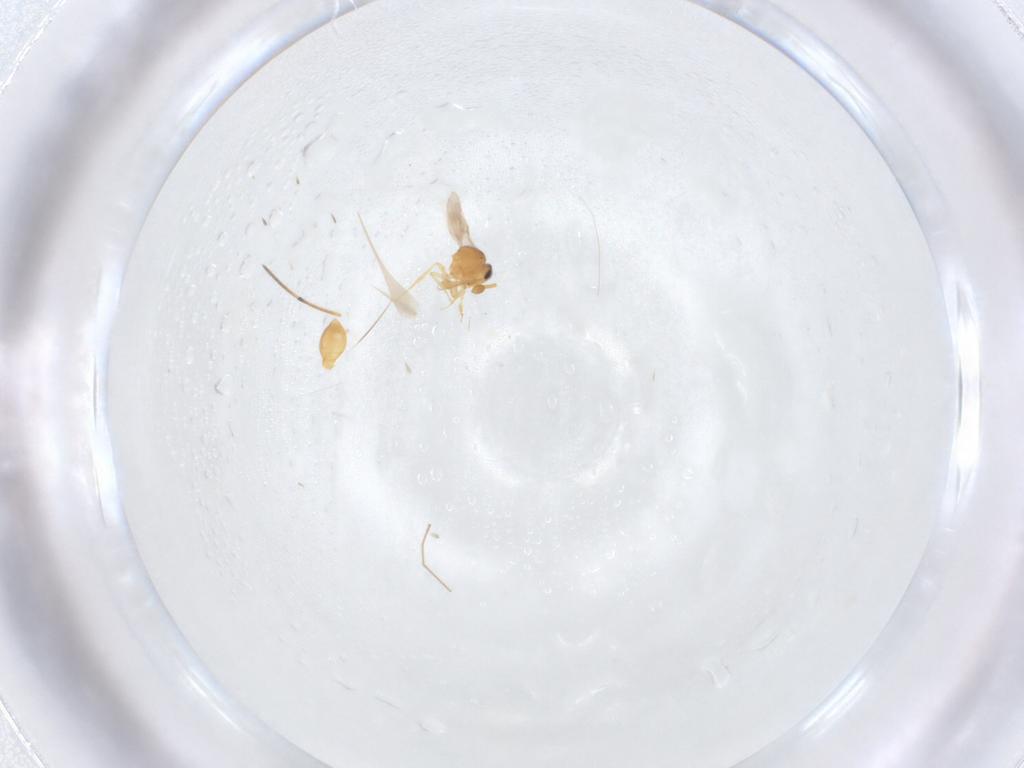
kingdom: Animalia
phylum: Arthropoda
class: Insecta
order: Hymenoptera
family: Scelionidae
